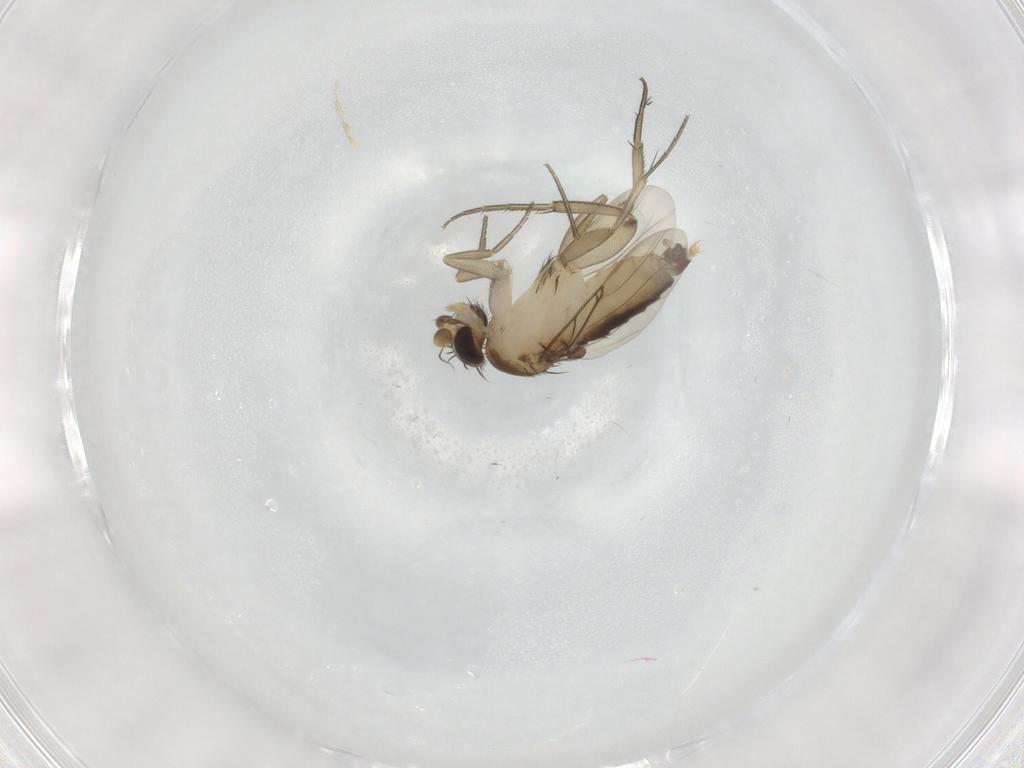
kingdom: Animalia
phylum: Arthropoda
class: Insecta
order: Diptera
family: Phoridae
